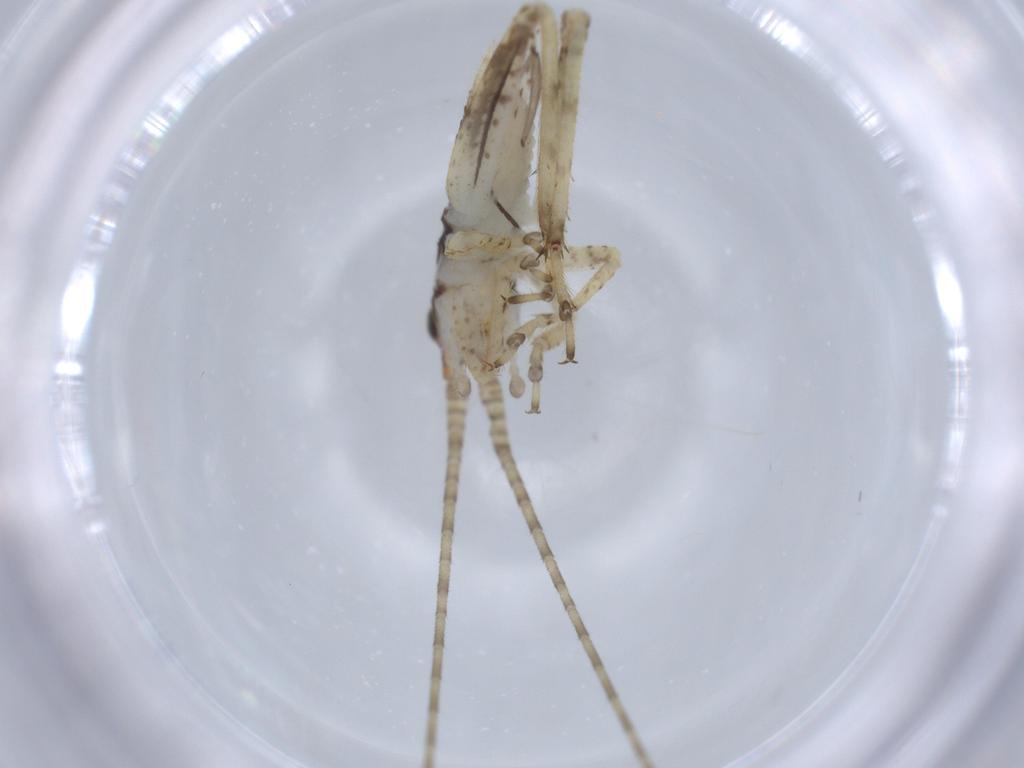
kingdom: Animalia
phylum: Arthropoda
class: Insecta
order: Orthoptera
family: Gryllidae
